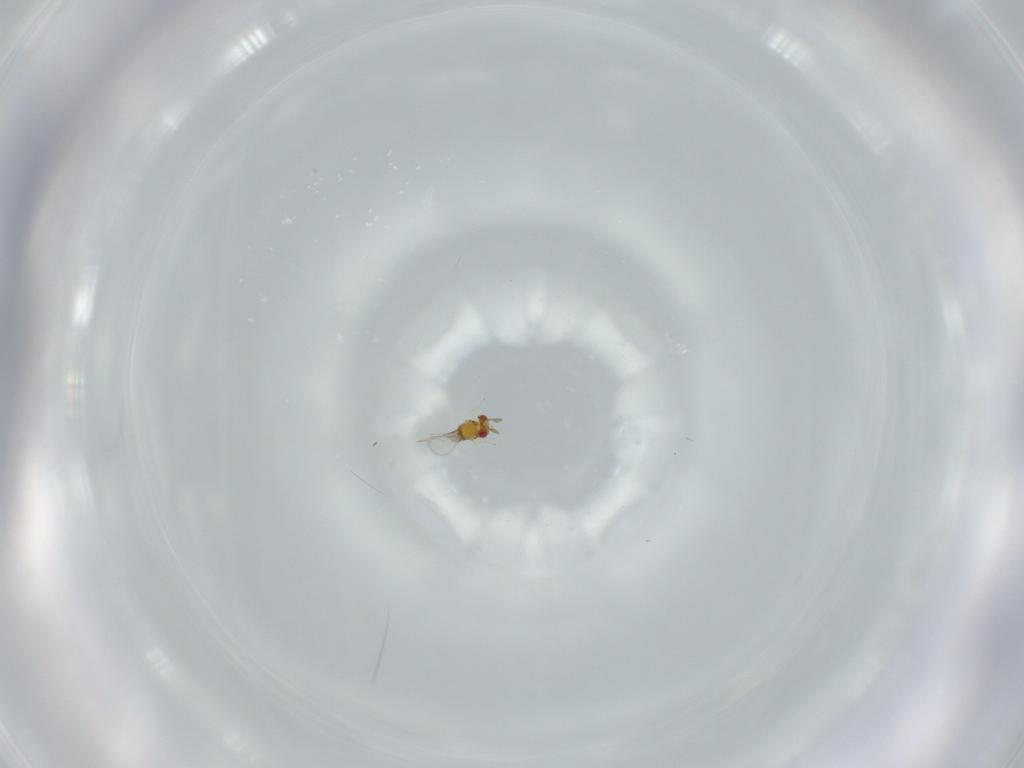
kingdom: Animalia
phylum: Arthropoda
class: Insecta
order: Hymenoptera
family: Trichogrammatidae
